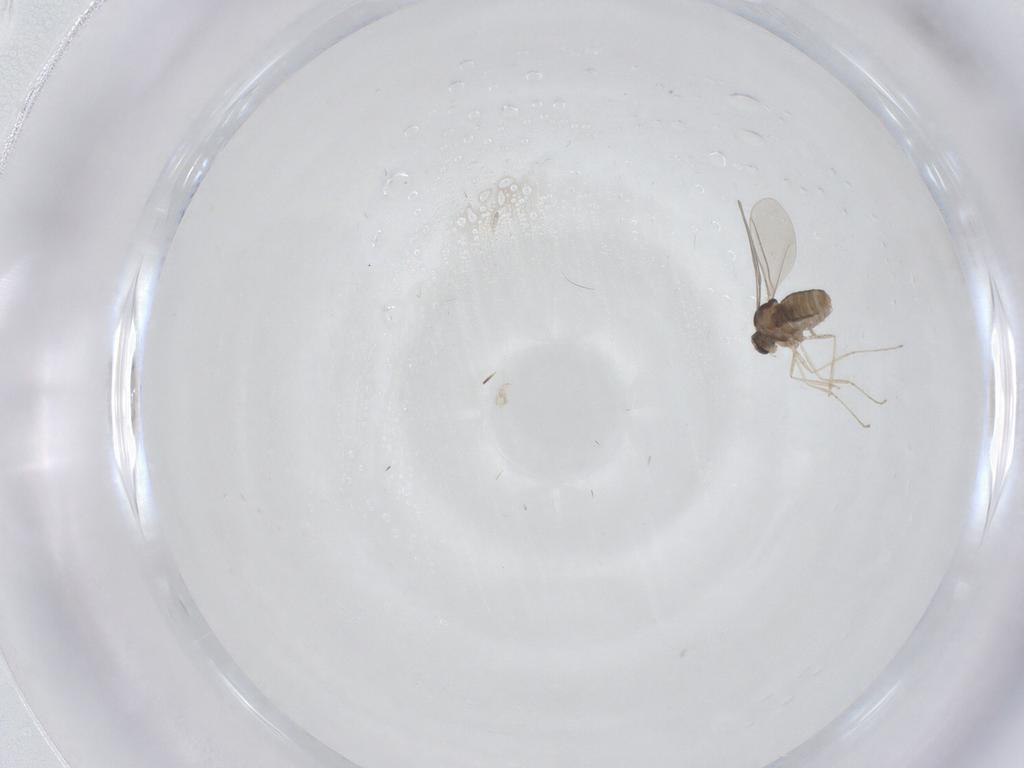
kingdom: Animalia
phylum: Arthropoda
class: Insecta
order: Diptera
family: Cecidomyiidae
